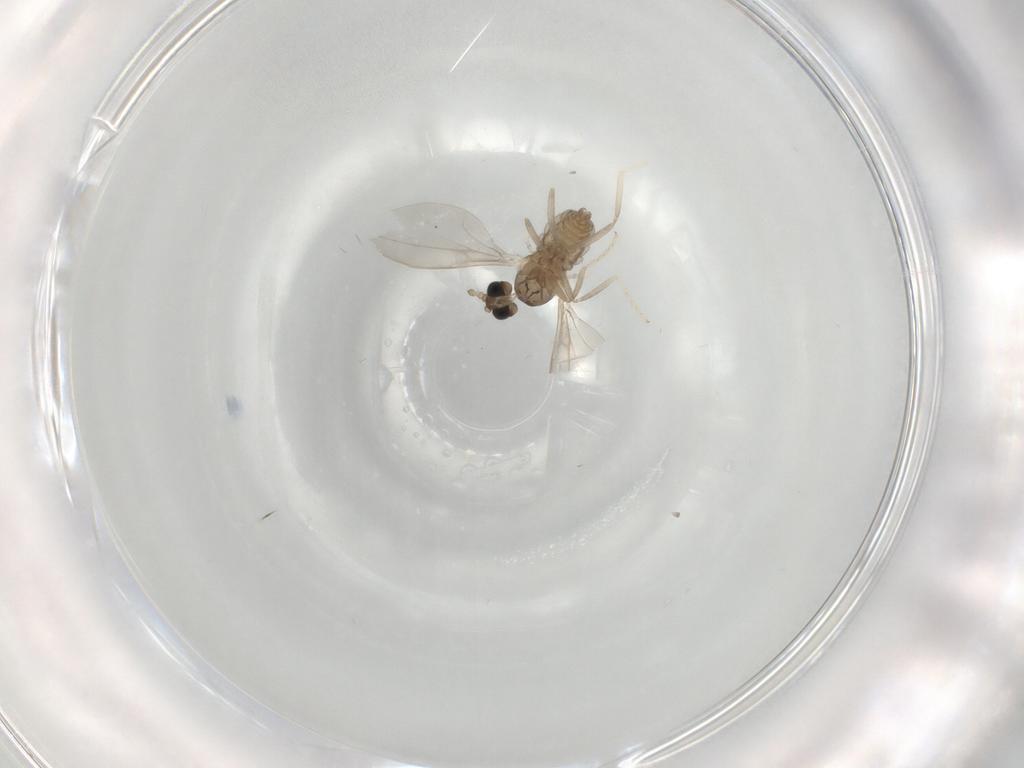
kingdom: Animalia
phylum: Arthropoda
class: Insecta
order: Diptera
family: Cecidomyiidae
